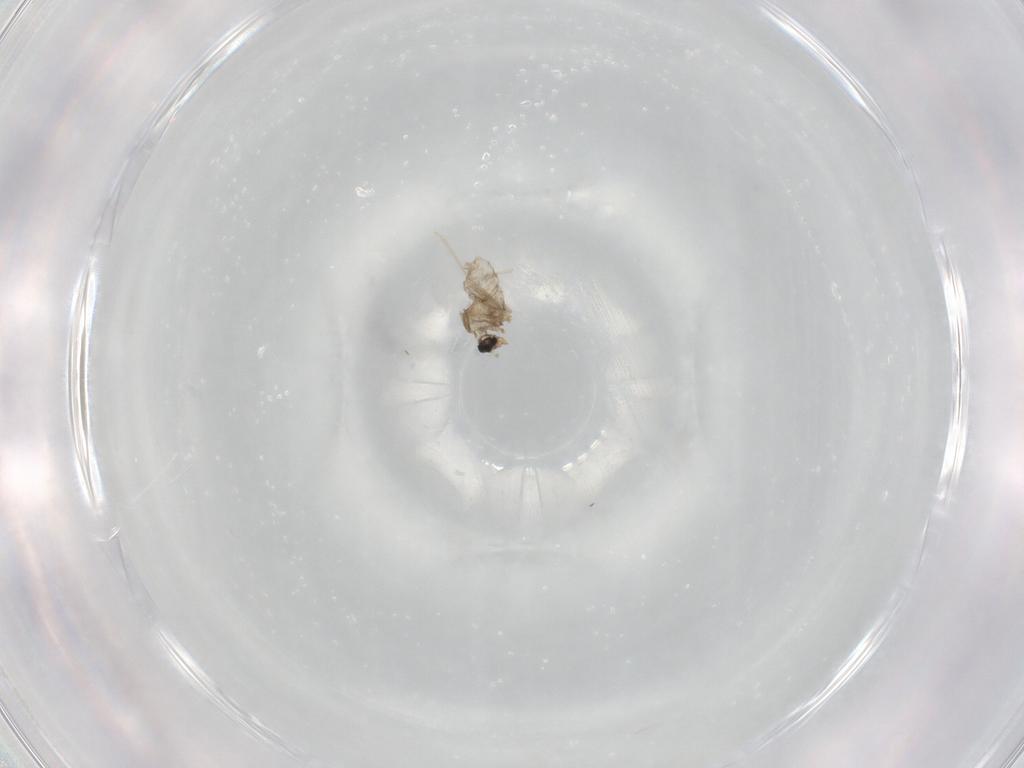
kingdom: Animalia
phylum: Arthropoda
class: Insecta
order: Diptera
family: Cecidomyiidae
